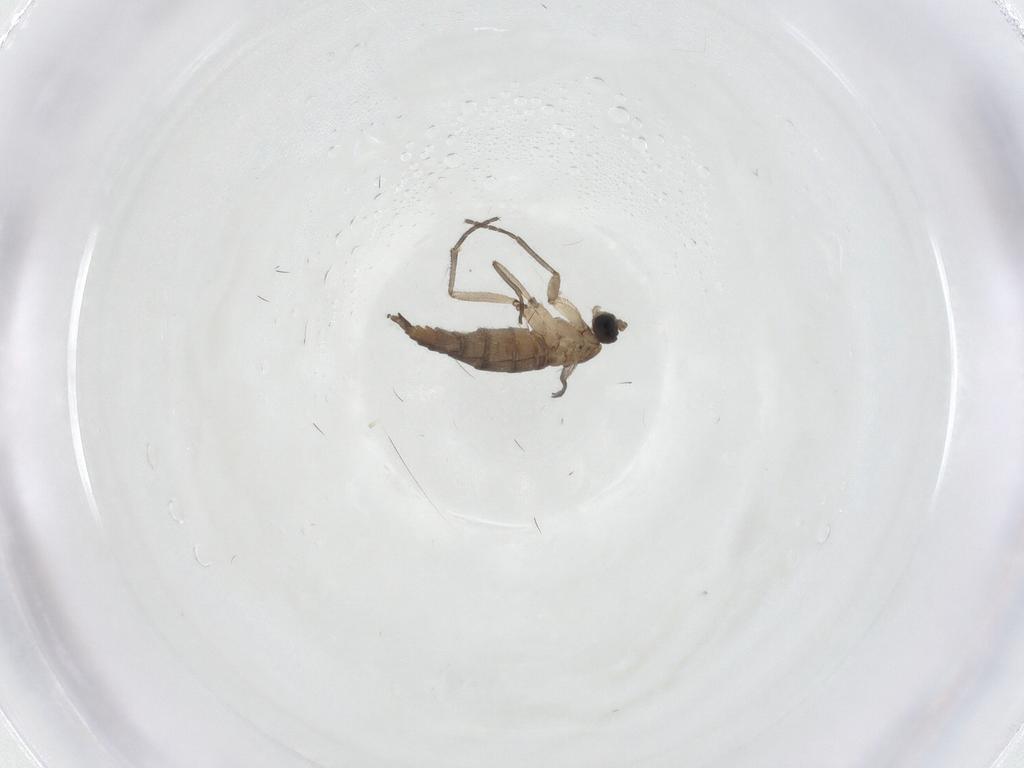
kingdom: Animalia
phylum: Arthropoda
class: Insecta
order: Diptera
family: Sciaridae
